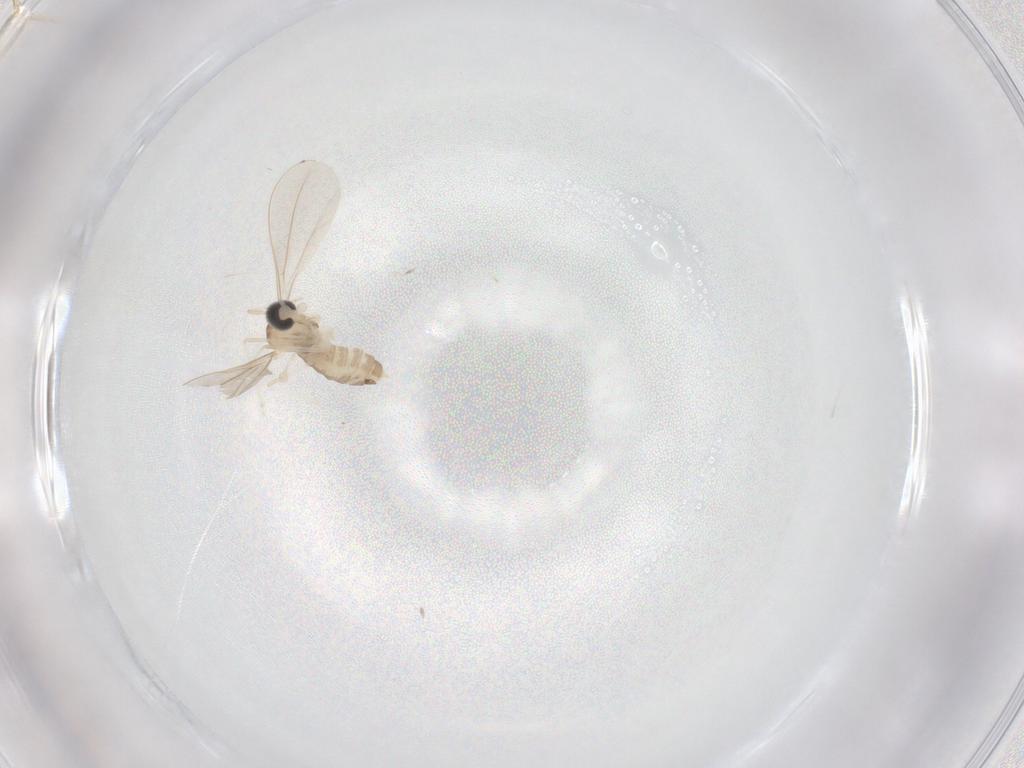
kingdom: Animalia
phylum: Arthropoda
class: Insecta
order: Diptera
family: Cecidomyiidae
